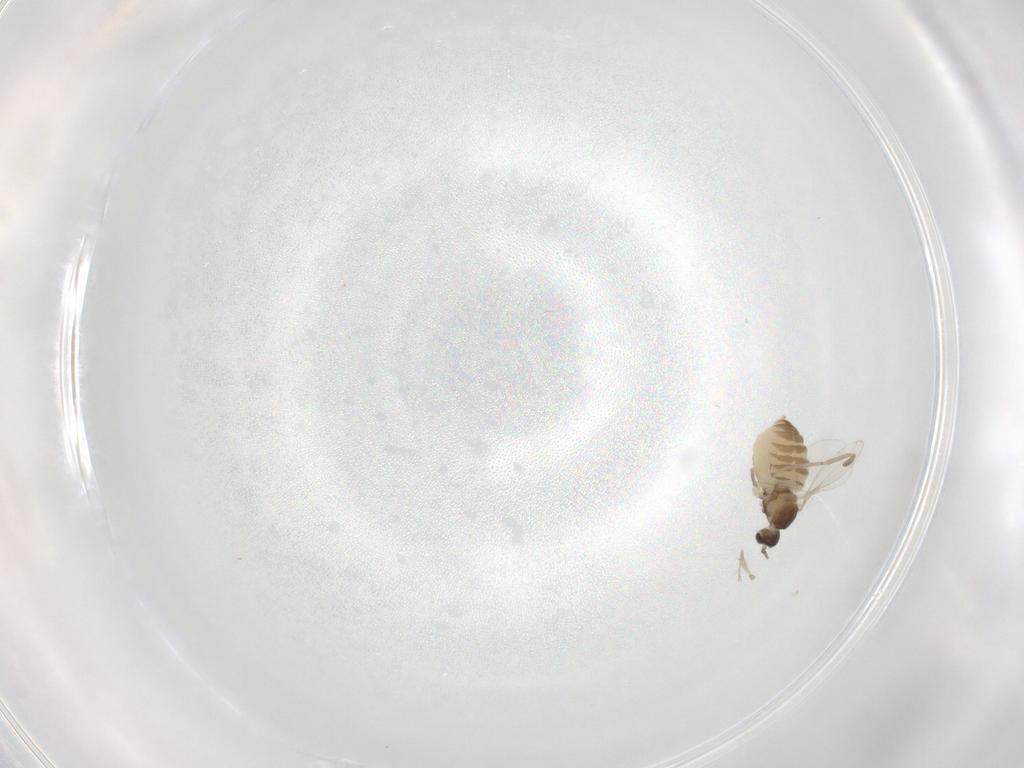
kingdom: Animalia
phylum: Arthropoda
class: Insecta
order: Diptera
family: Cecidomyiidae
